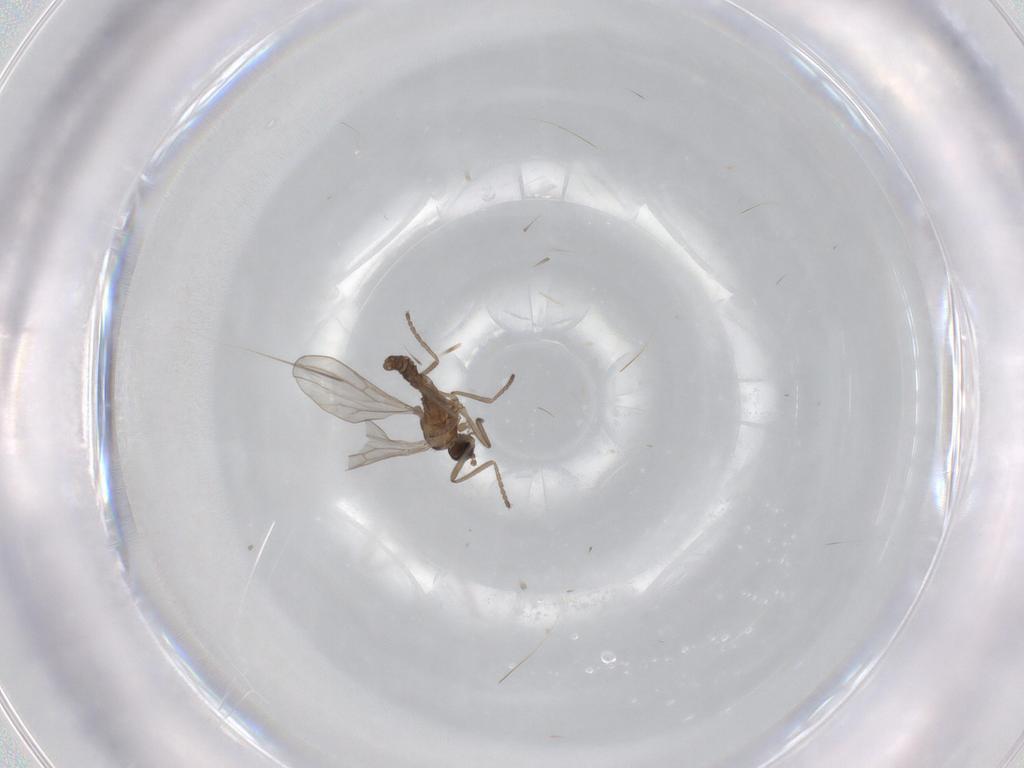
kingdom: Animalia
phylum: Arthropoda
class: Insecta
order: Diptera
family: Cecidomyiidae
